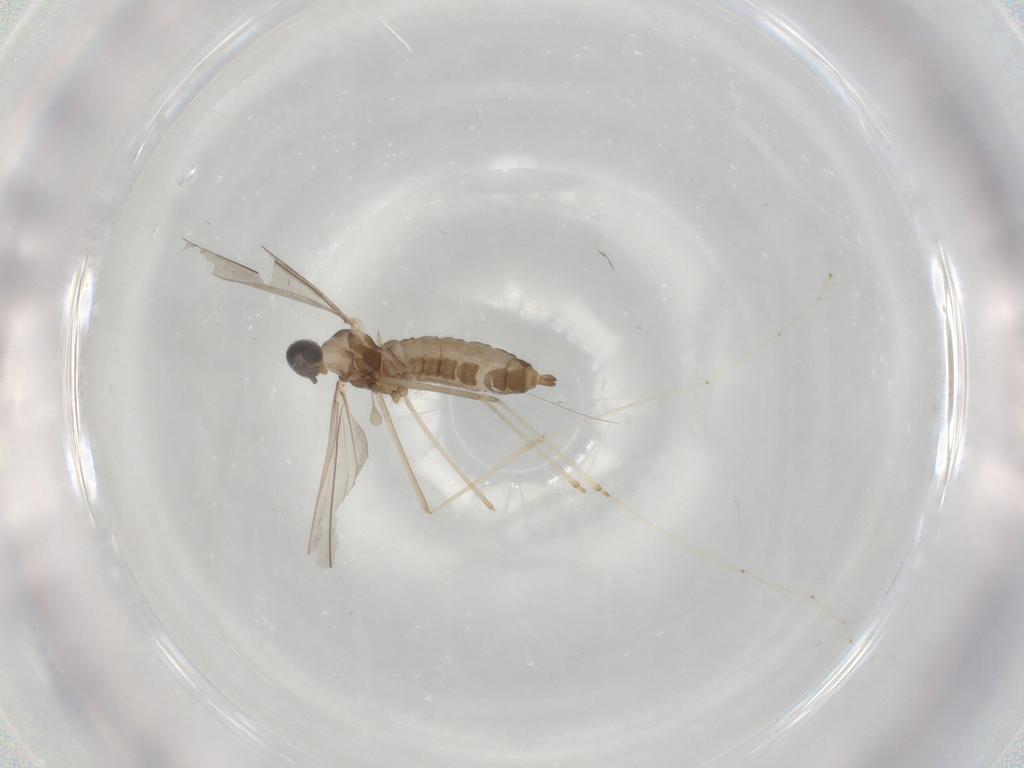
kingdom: Animalia
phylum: Arthropoda
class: Insecta
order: Diptera
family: Cecidomyiidae
